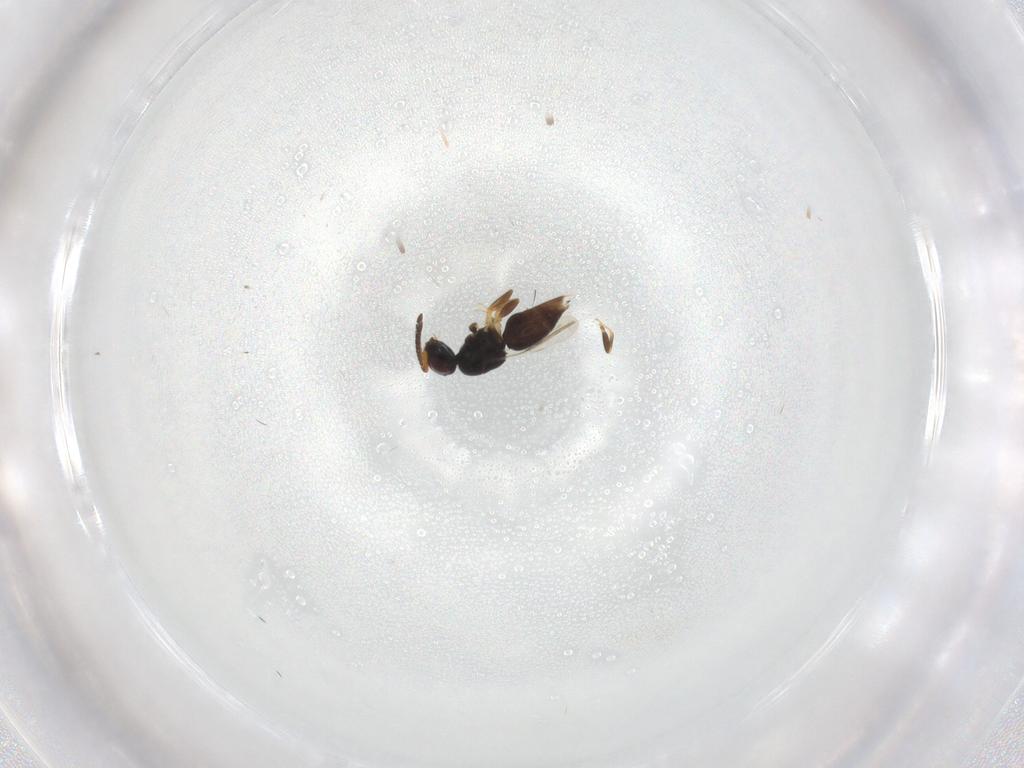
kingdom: Animalia
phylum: Arthropoda
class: Insecta
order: Hymenoptera
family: Ceraphronidae
